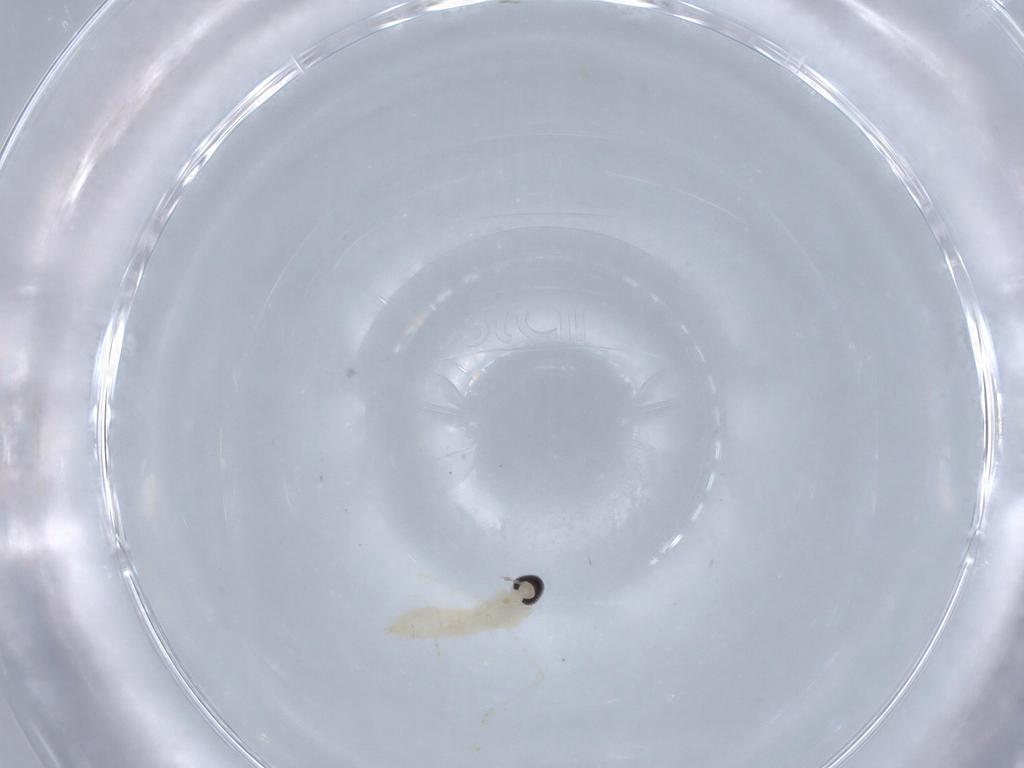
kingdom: Animalia
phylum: Arthropoda
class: Insecta
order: Diptera
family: Cecidomyiidae
